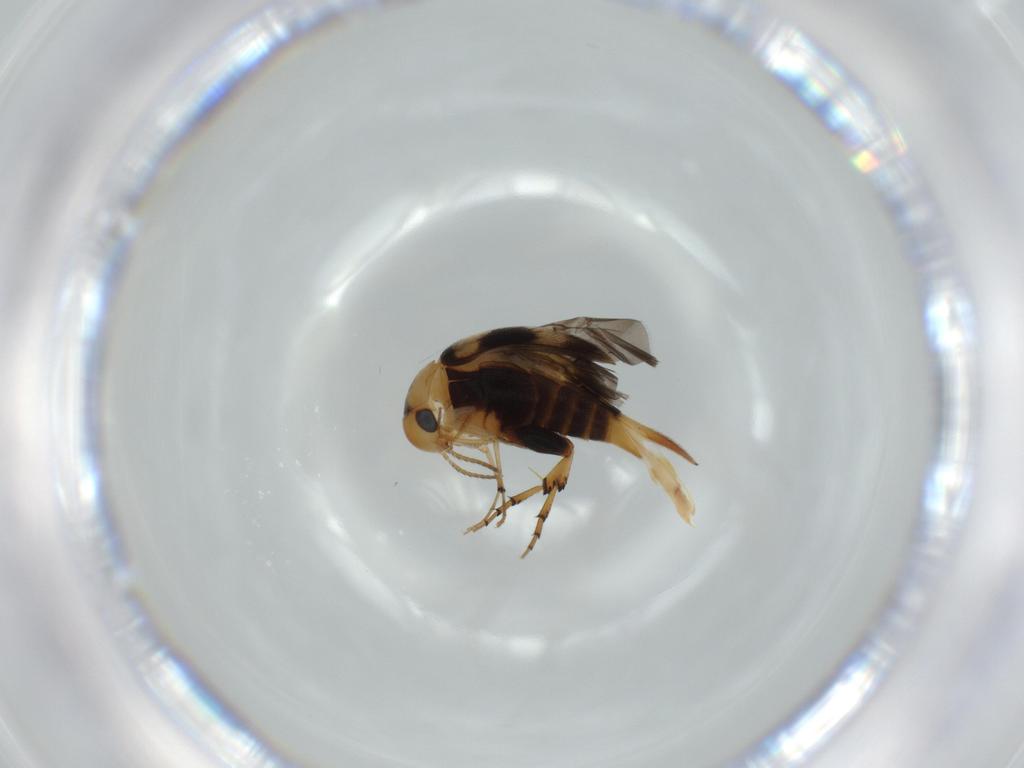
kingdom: Animalia
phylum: Arthropoda
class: Insecta
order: Coleoptera
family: Mordellidae
